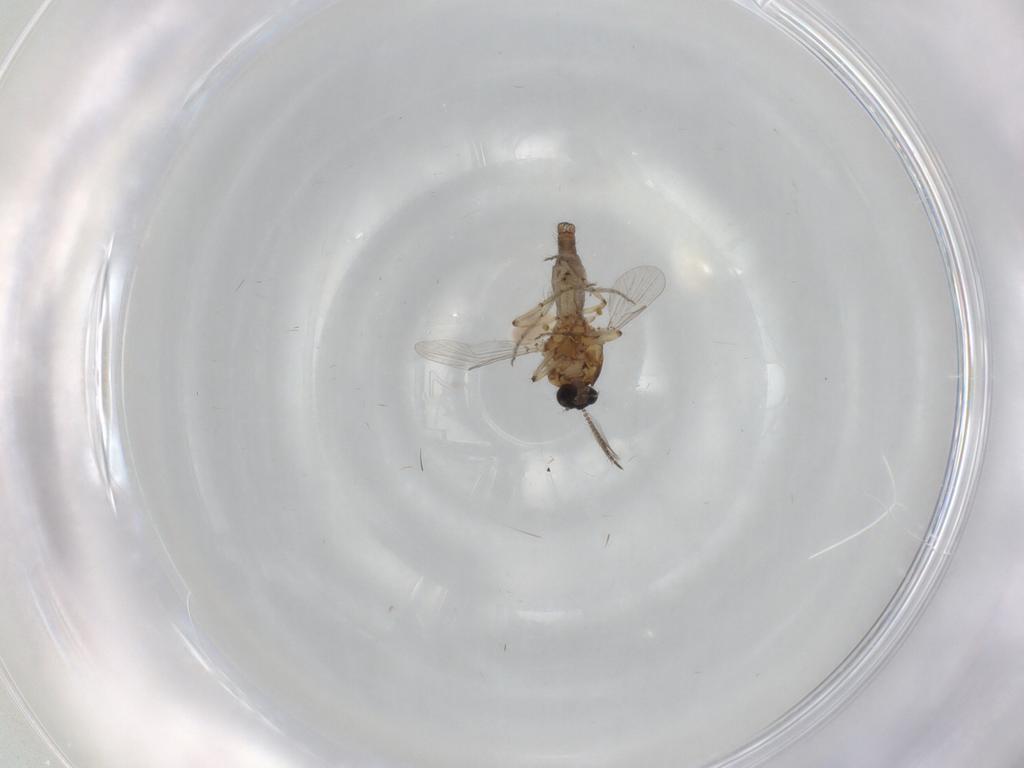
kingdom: Animalia
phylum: Arthropoda
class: Insecta
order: Diptera
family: Ceratopogonidae
